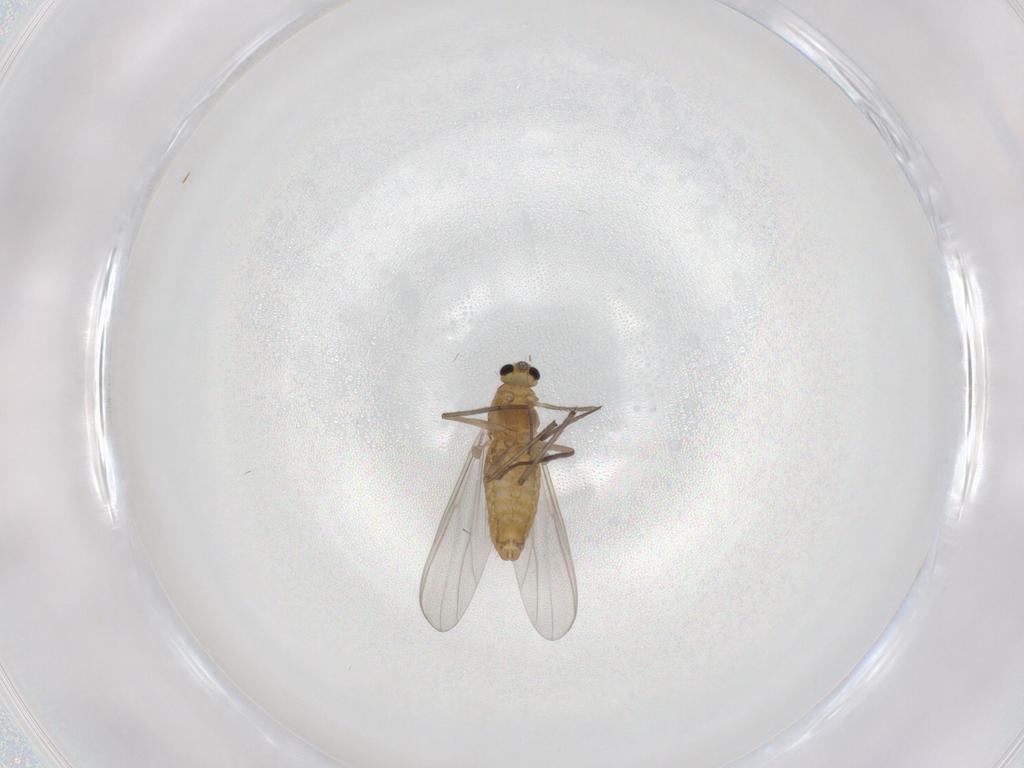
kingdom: Animalia
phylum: Arthropoda
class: Insecta
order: Diptera
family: Chironomidae
